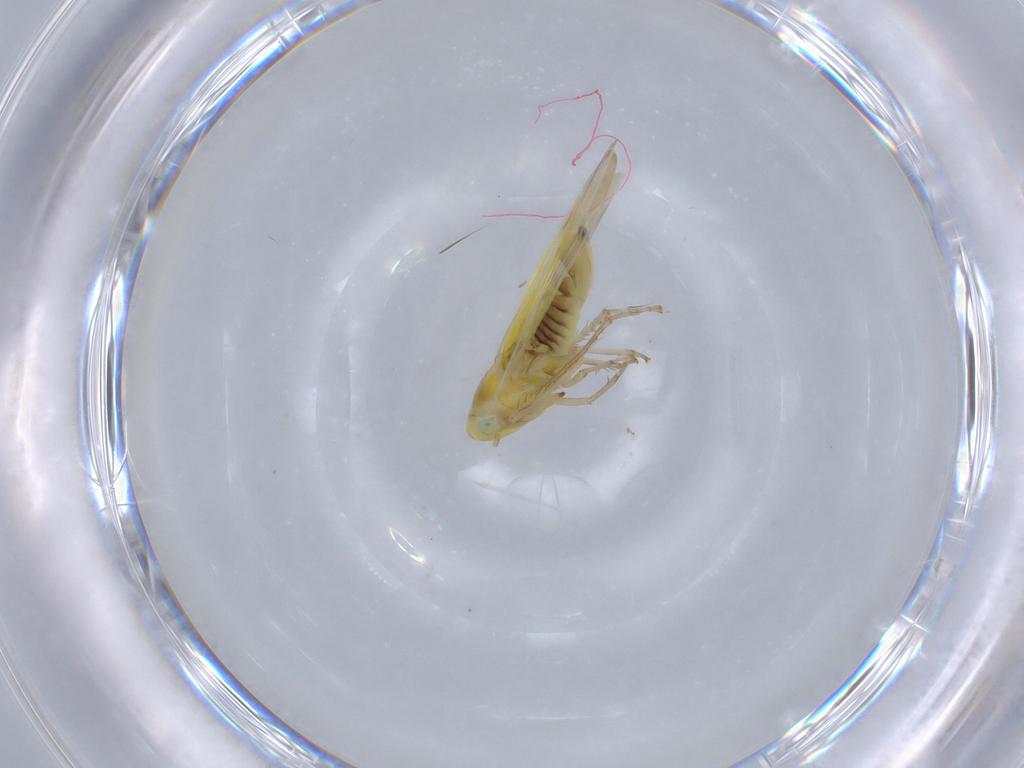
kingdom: Animalia
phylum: Arthropoda
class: Insecta
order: Hemiptera
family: Cicadellidae
